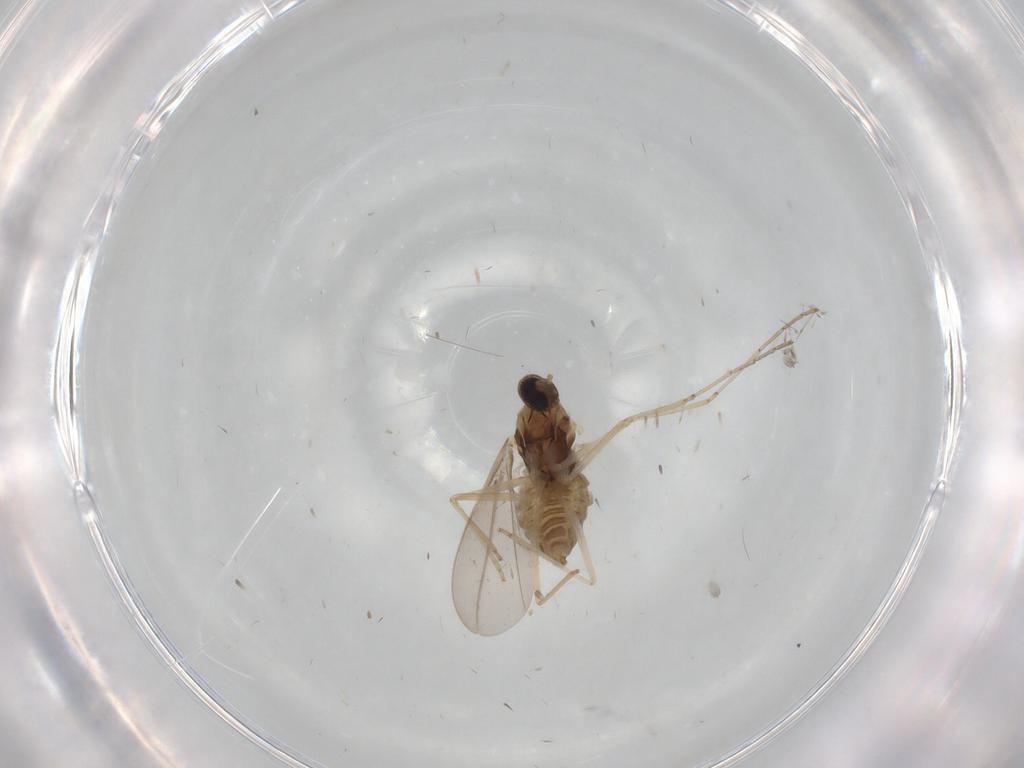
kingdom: Animalia
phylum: Arthropoda
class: Insecta
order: Diptera
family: Cecidomyiidae
